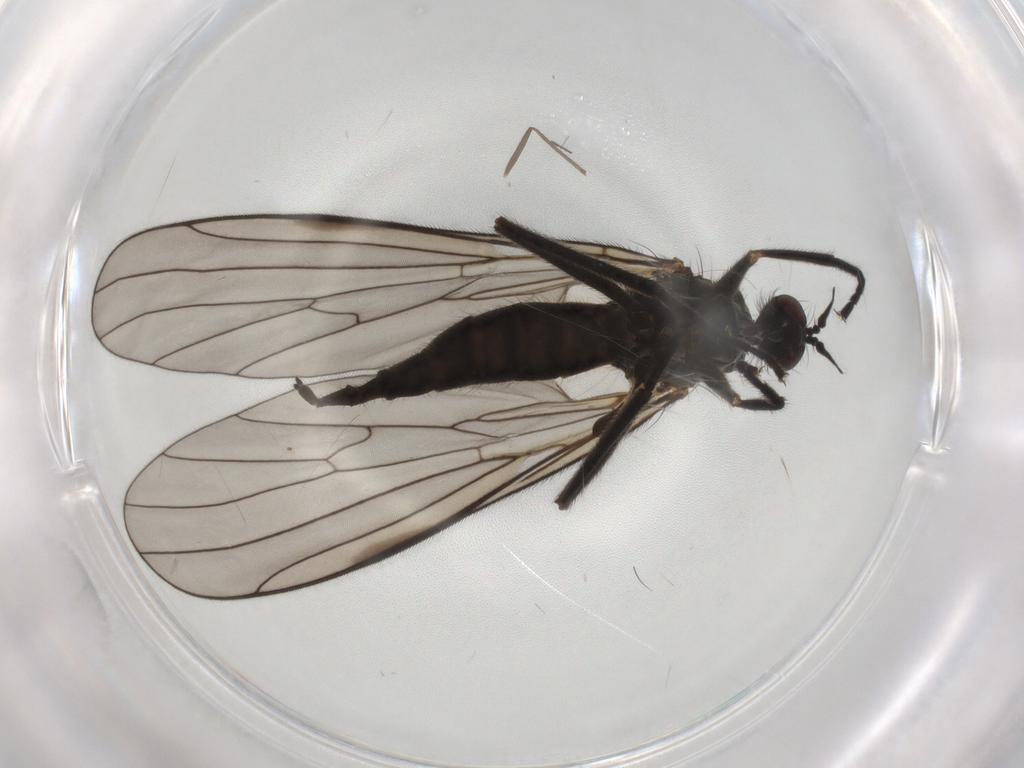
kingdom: Animalia
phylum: Arthropoda
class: Insecta
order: Diptera
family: Empididae
